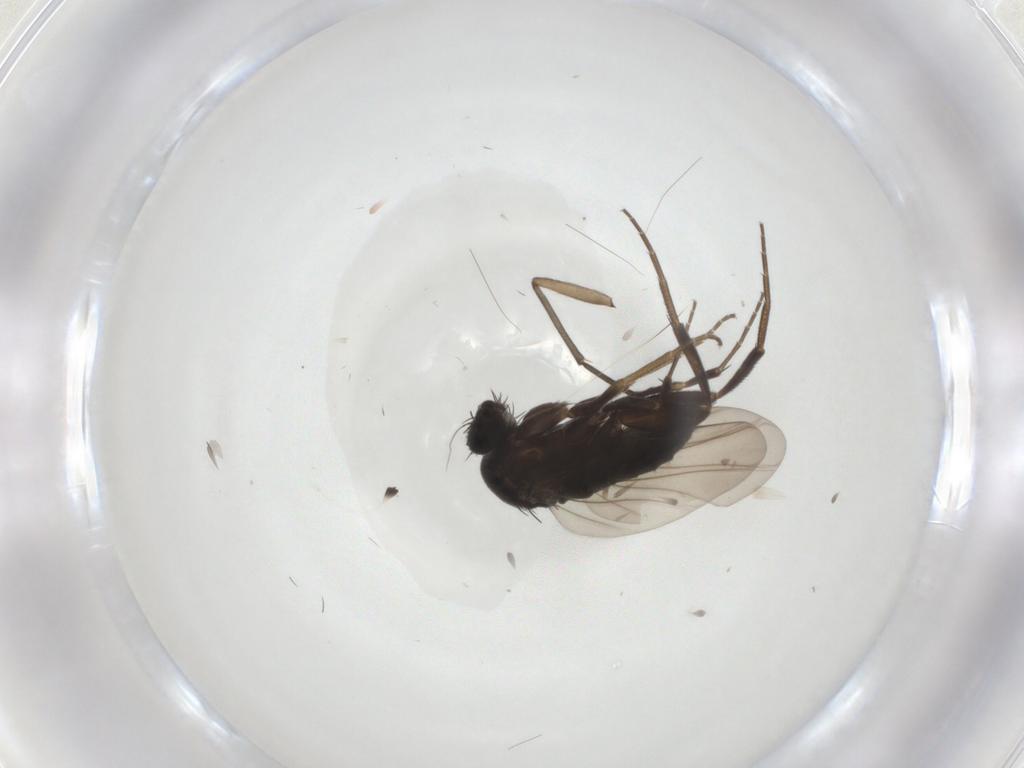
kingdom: Animalia
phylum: Arthropoda
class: Insecta
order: Diptera
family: Phoridae
